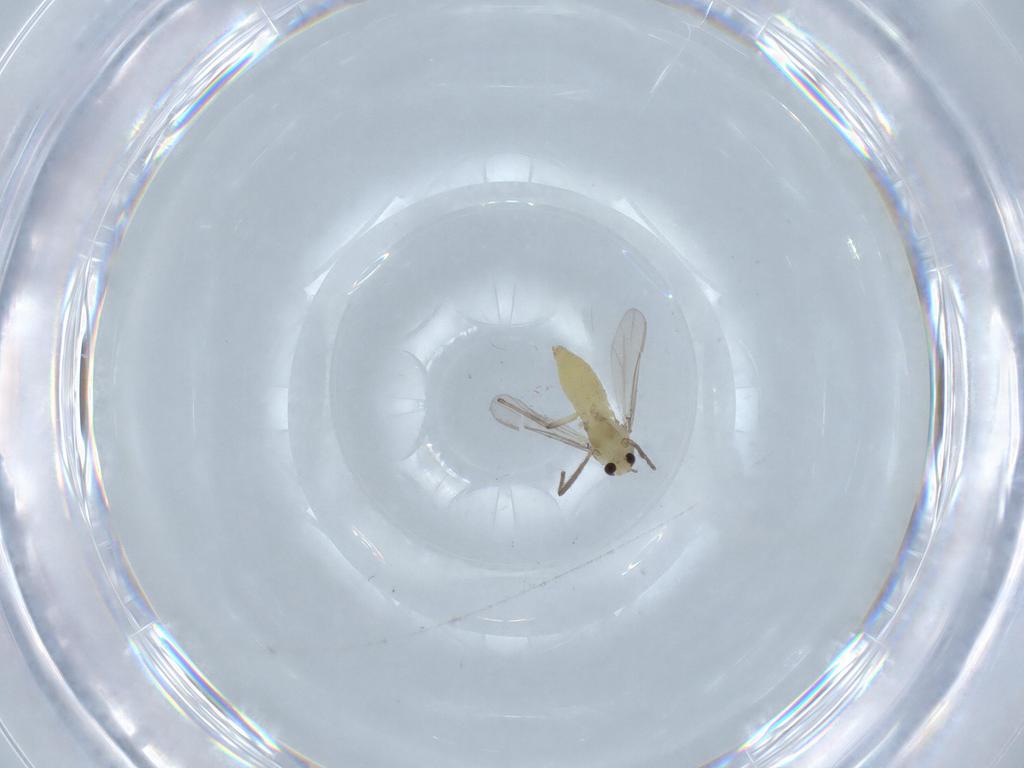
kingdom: Animalia
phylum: Arthropoda
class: Insecta
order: Diptera
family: Chironomidae
